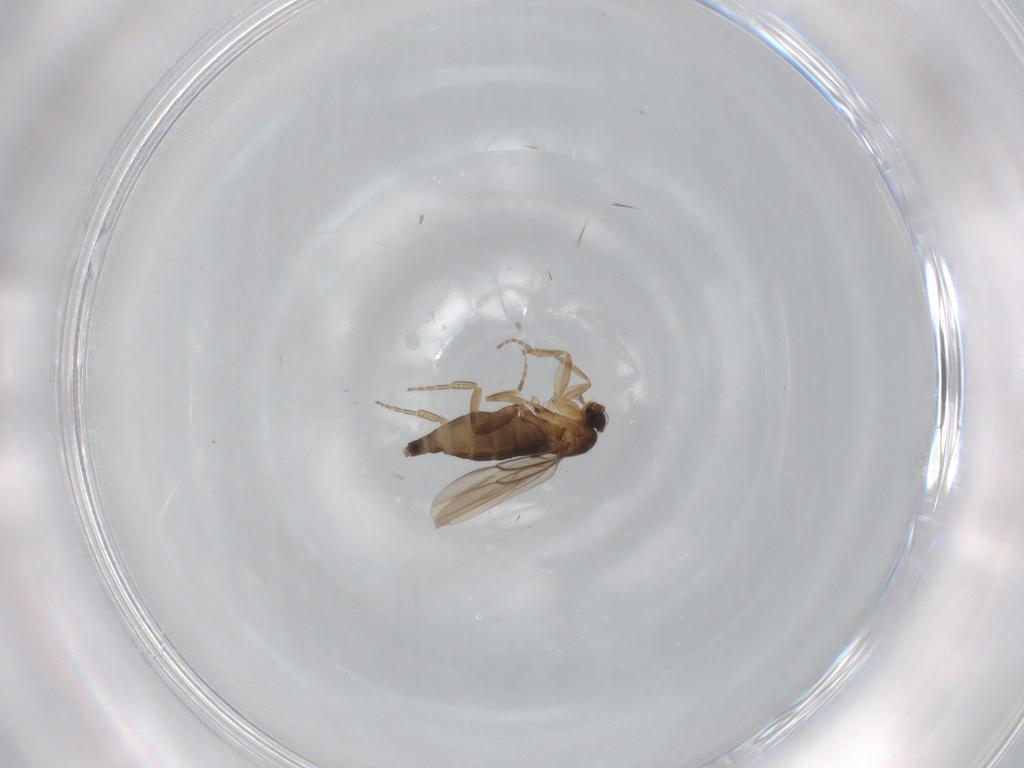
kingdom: Animalia
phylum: Arthropoda
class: Insecta
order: Diptera
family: Phoridae
